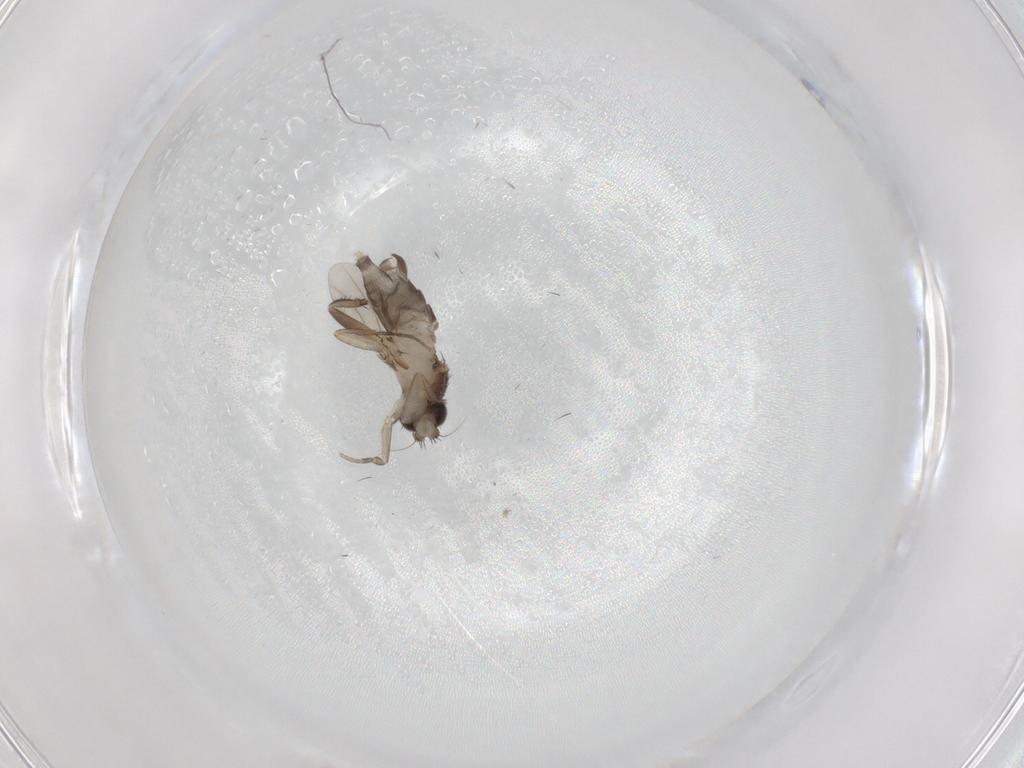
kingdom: Animalia
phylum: Arthropoda
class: Insecta
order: Diptera
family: Phoridae
